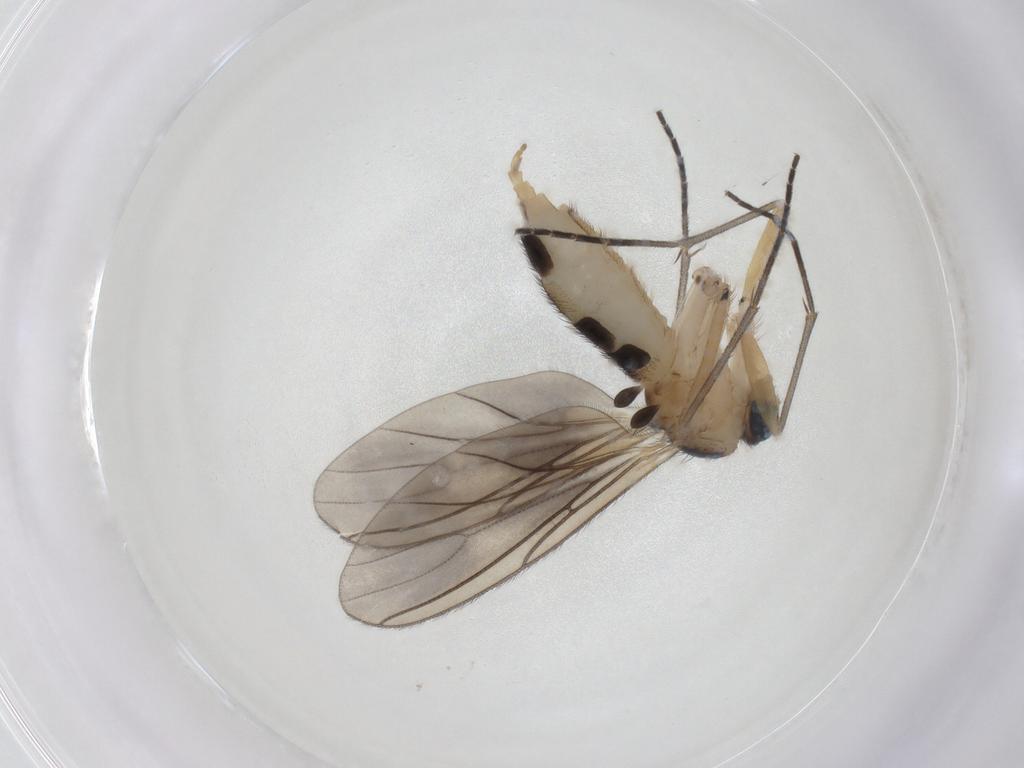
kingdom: Animalia
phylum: Arthropoda
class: Insecta
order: Diptera
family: Sciaridae
